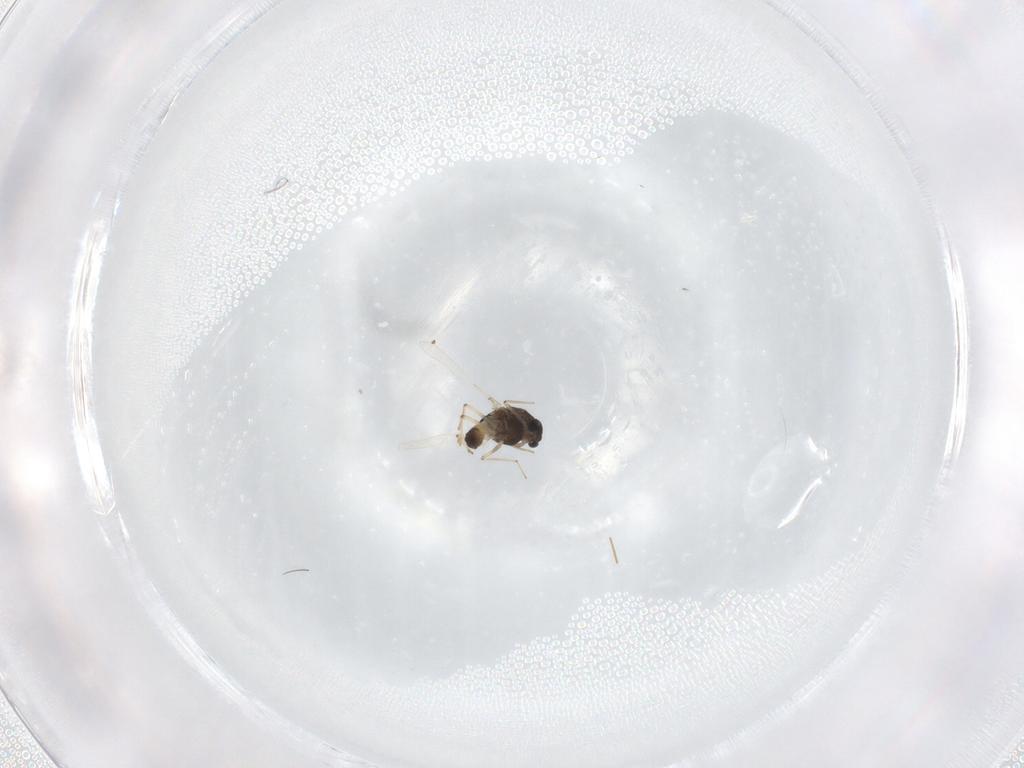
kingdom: Animalia
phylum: Arthropoda
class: Insecta
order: Diptera
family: Chironomidae
